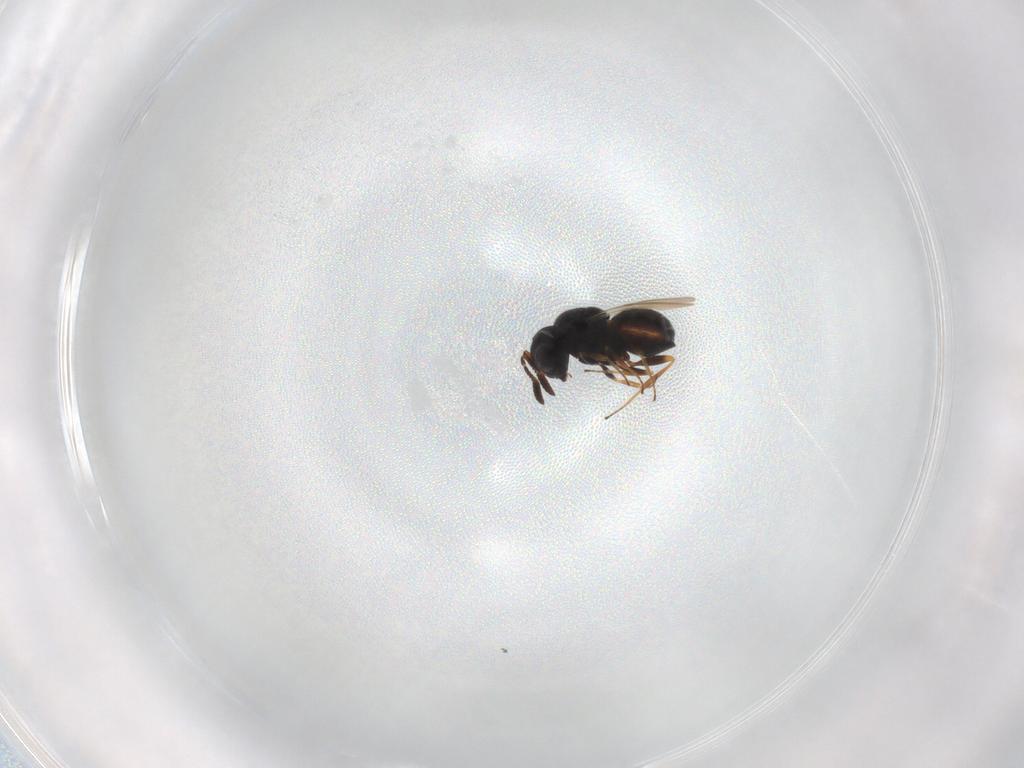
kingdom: Animalia
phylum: Arthropoda
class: Insecta
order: Hymenoptera
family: Scelionidae
